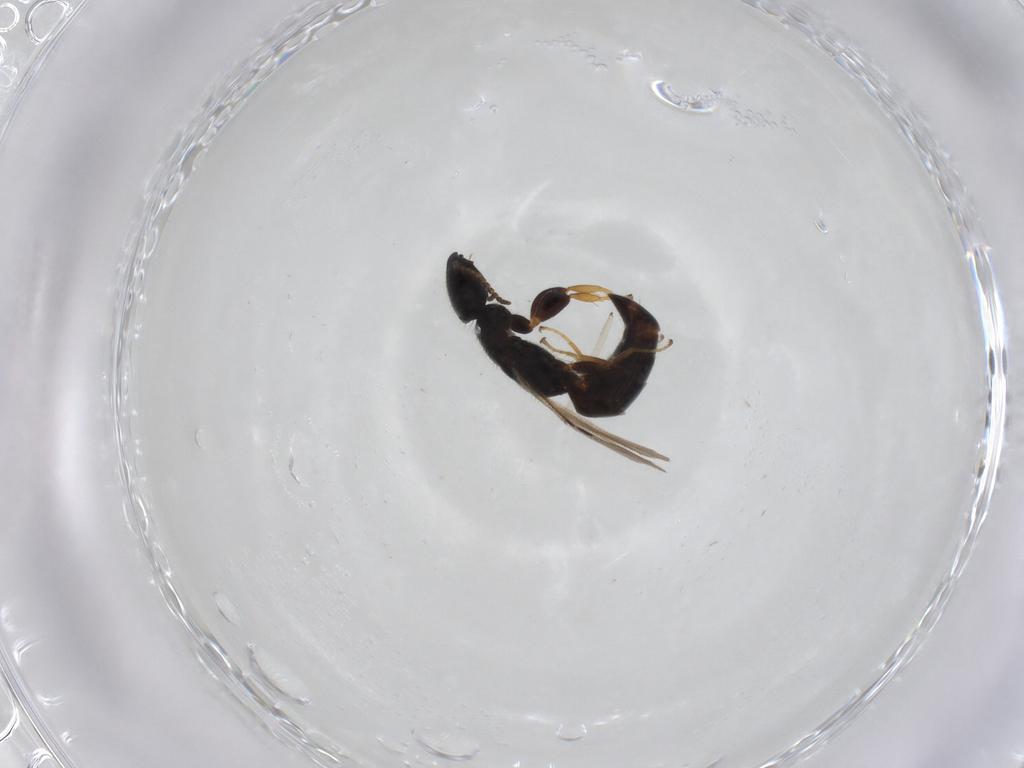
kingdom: Animalia
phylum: Arthropoda
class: Insecta
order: Hymenoptera
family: Bethylidae
